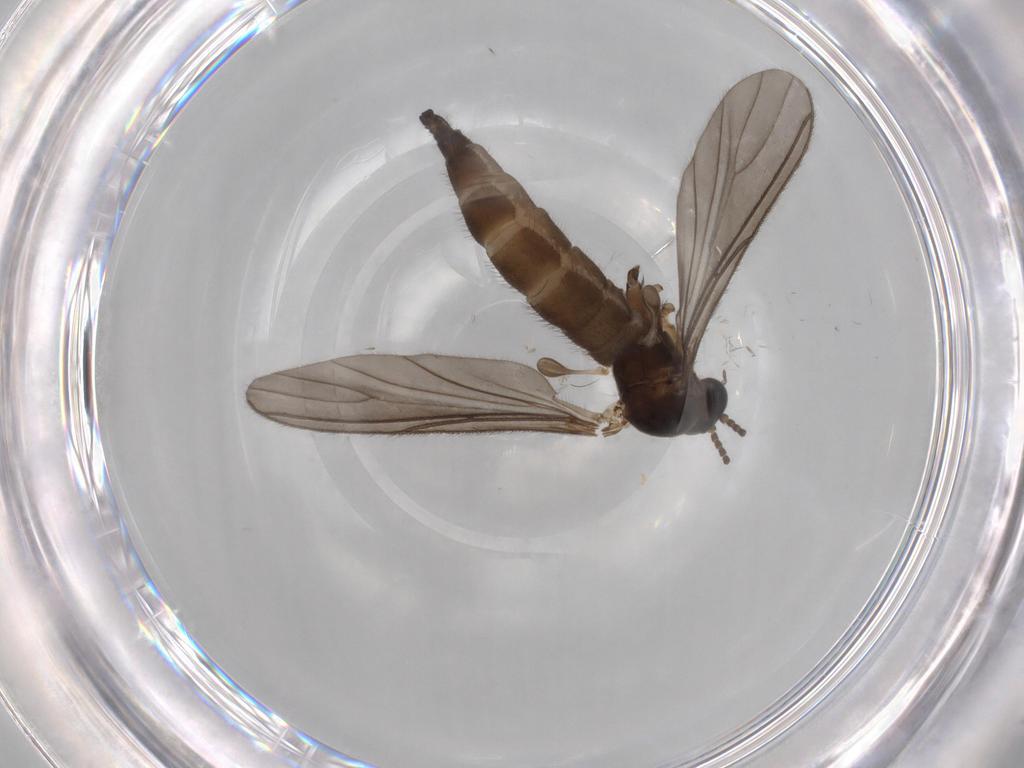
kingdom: Animalia
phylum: Arthropoda
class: Insecta
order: Diptera
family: Sciaridae
